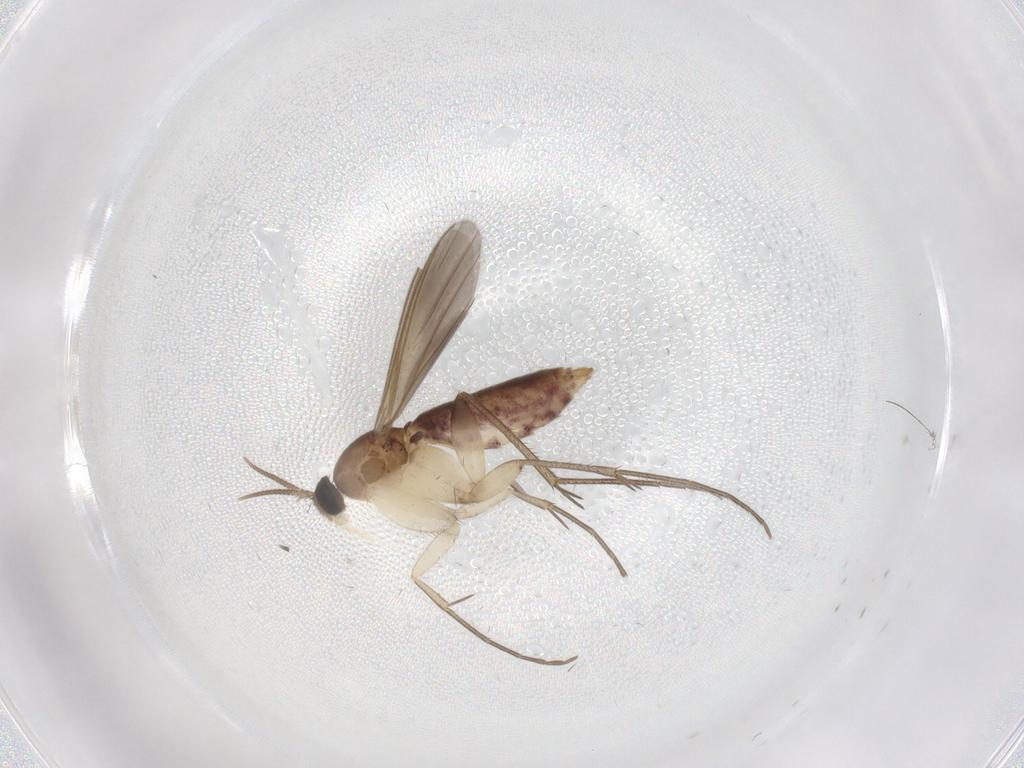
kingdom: Animalia
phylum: Arthropoda
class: Insecta
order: Diptera
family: Mycetophilidae
